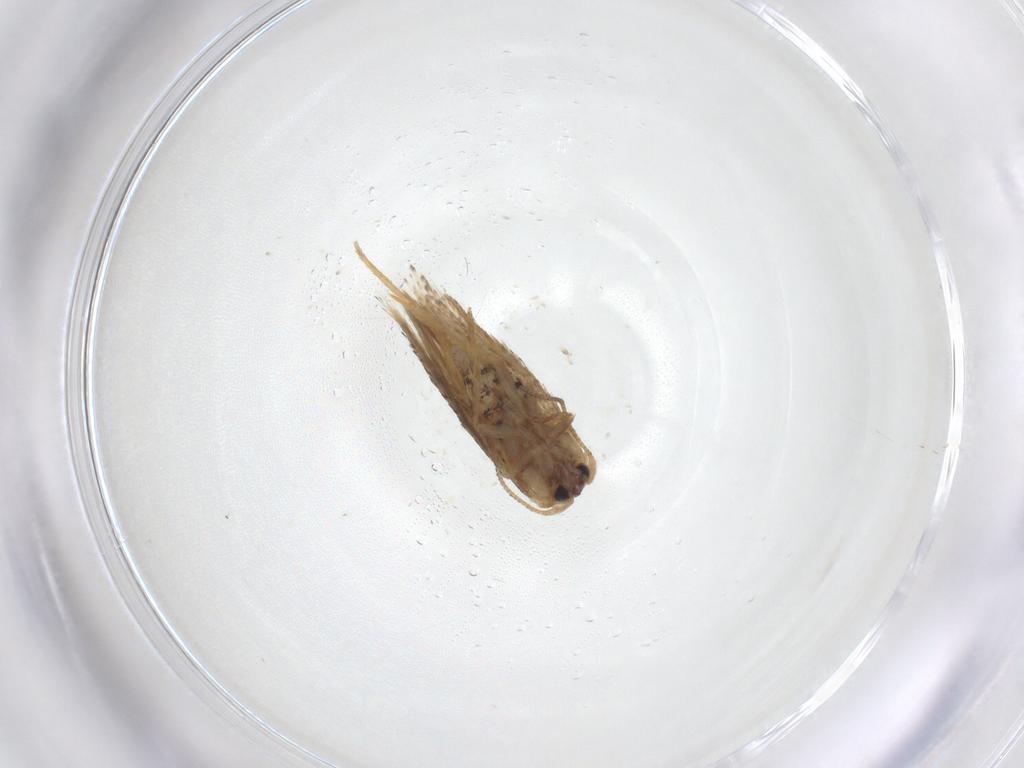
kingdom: Animalia
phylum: Arthropoda
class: Insecta
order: Lepidoptera
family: Nepticulidae
